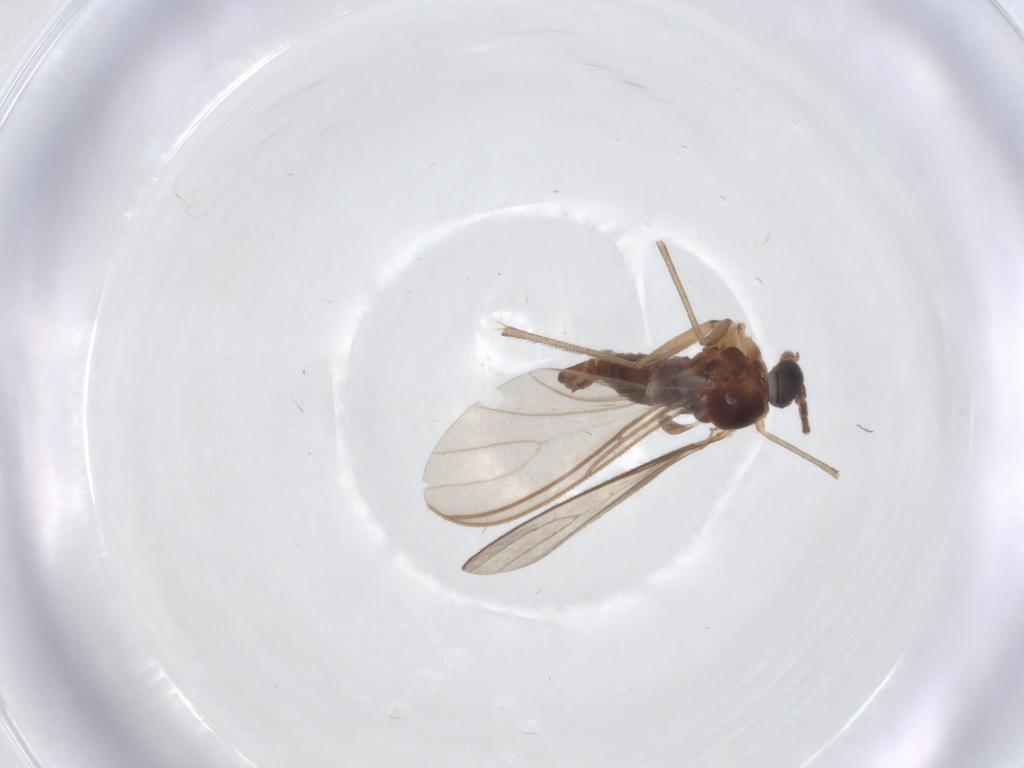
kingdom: Animalia
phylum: Arthropoda
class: Insecta
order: Diptera
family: Sciaridae
